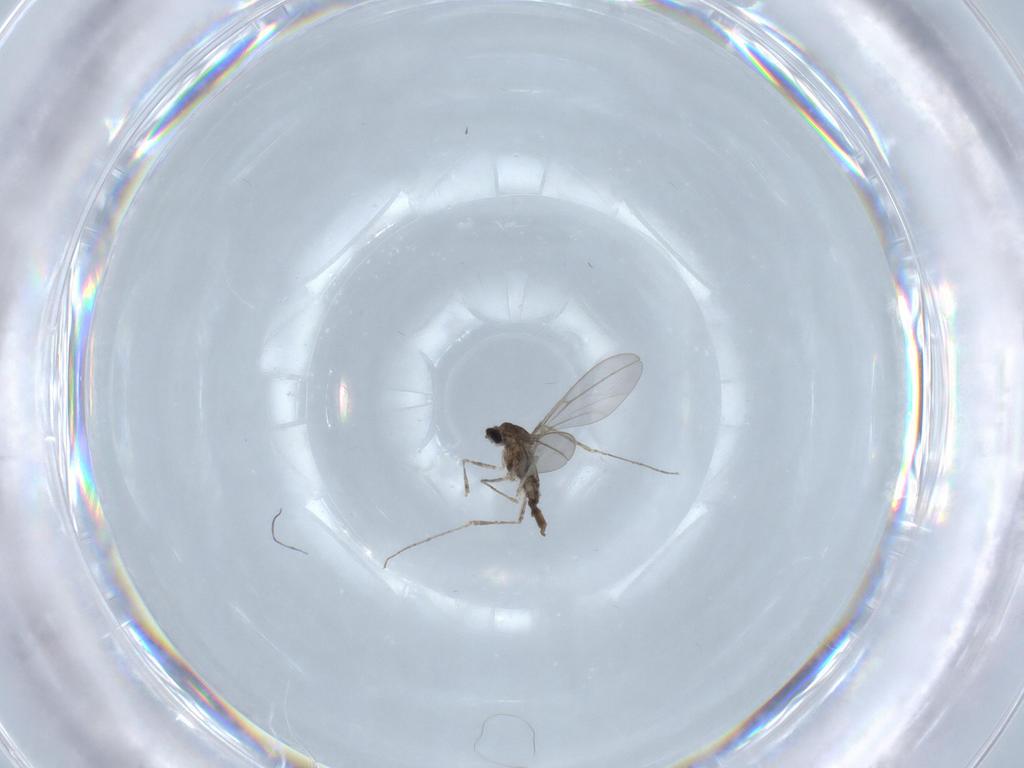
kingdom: Animalia
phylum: Arthropoda
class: Insecta
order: Diptera
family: Cecidomyiidae
